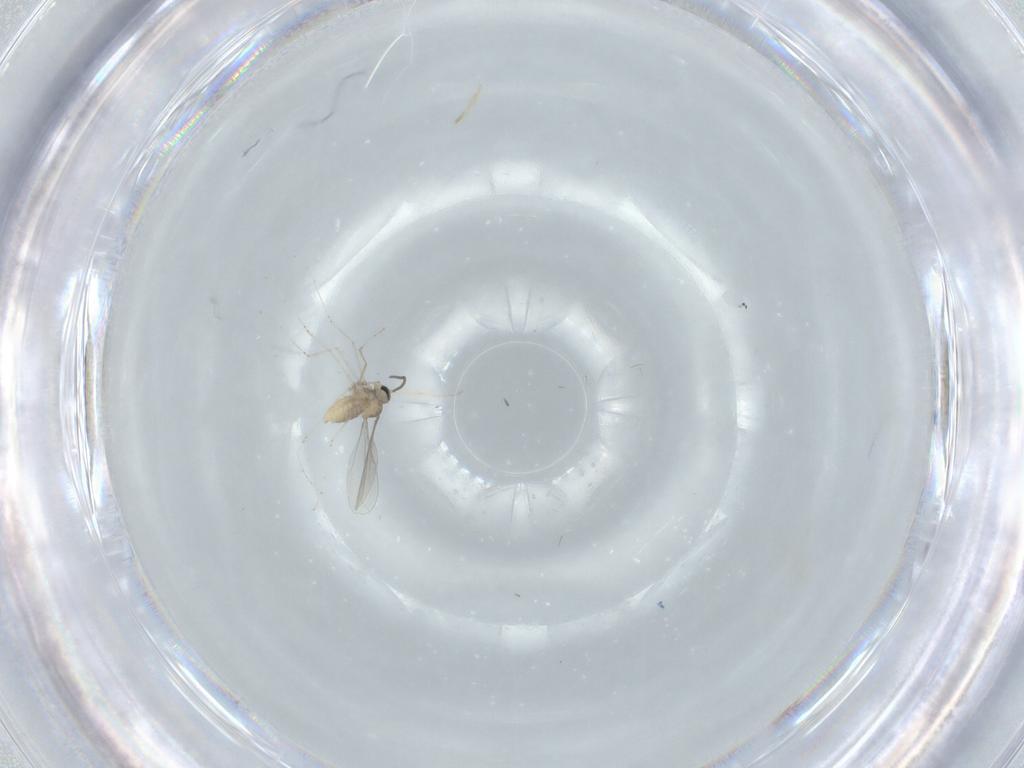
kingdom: Animalia
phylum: Arthropoda
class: Insecta
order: Diptera
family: Cecidomyiidae
